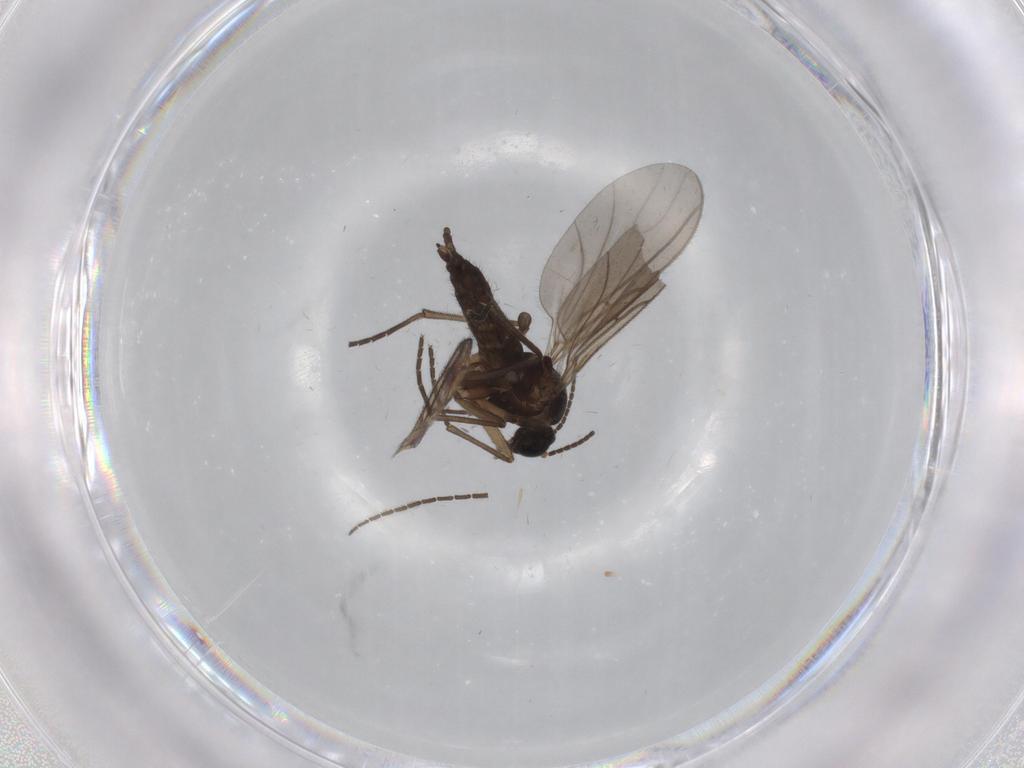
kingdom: Animalia
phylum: Arthropoda
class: Insecta
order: Diptera
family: Sciaridae
